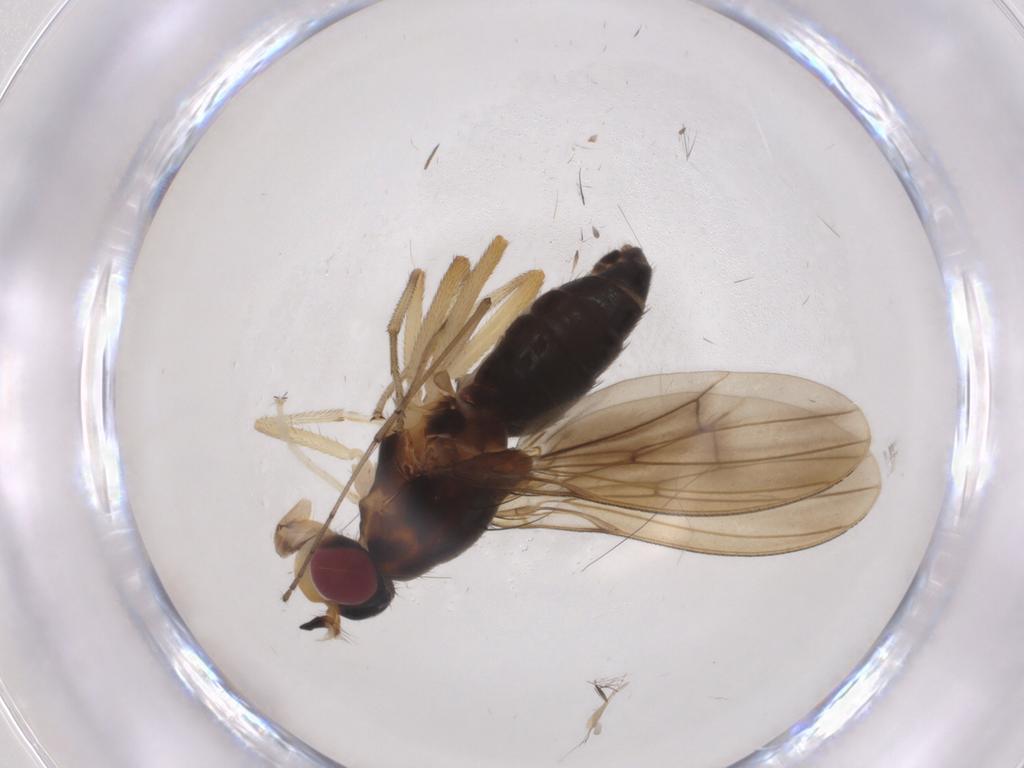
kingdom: Animalia
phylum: Arthropoda
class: Insecta
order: Diptera
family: Lauxaniidae
